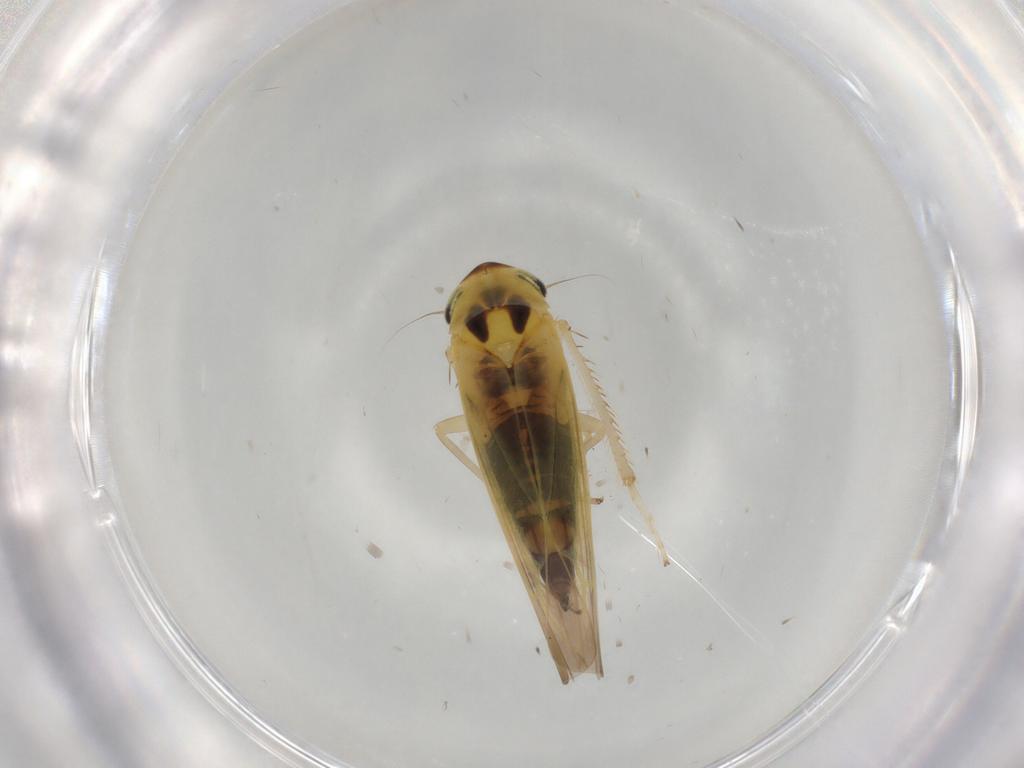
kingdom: Animalia
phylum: Arthropoda
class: Insecta
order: Hemiptera
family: Cicadellidae
